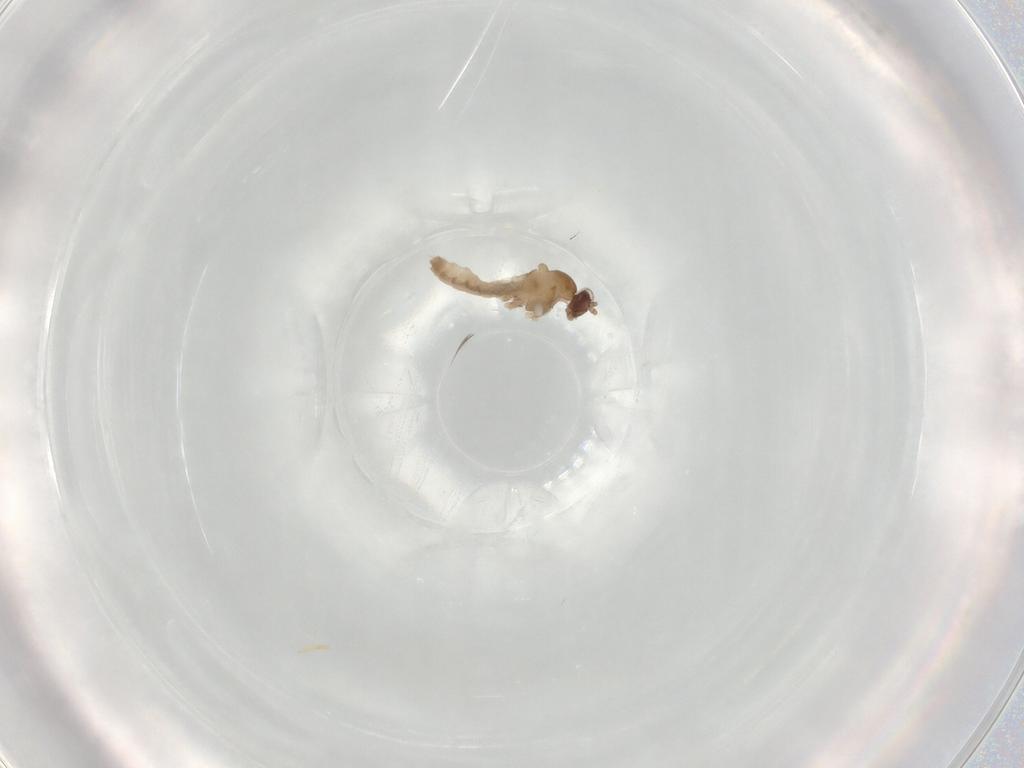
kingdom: Animalia
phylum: Arthropoda
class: Insecta
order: Diptera
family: Cecidomyiidae
